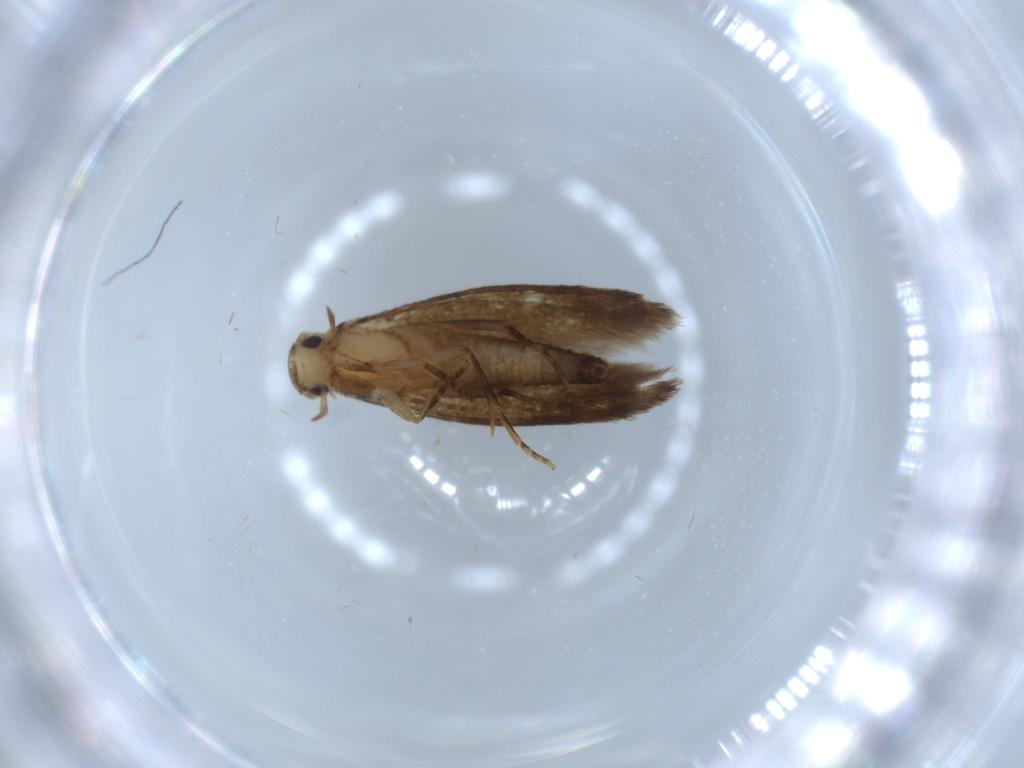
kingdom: Animalia
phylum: Arthropoda
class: Insecta
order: Lepidoptera
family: Tineidae
